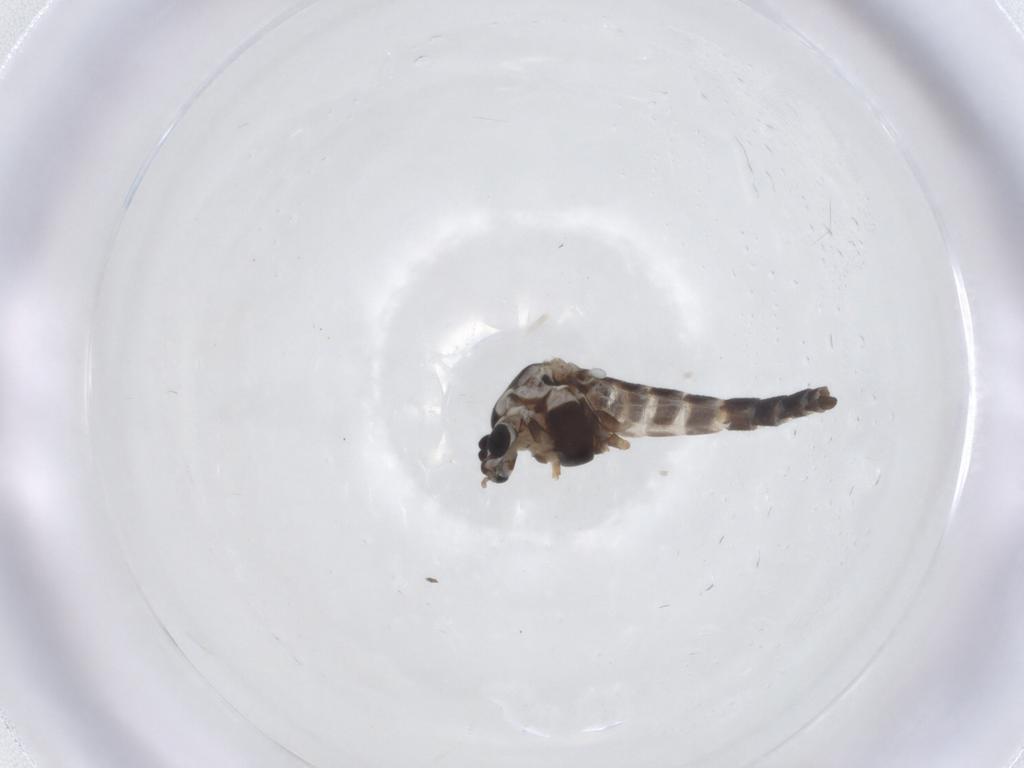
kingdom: Animalia
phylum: Arthropoda
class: Insecta
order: Diptera
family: Chironomidae
